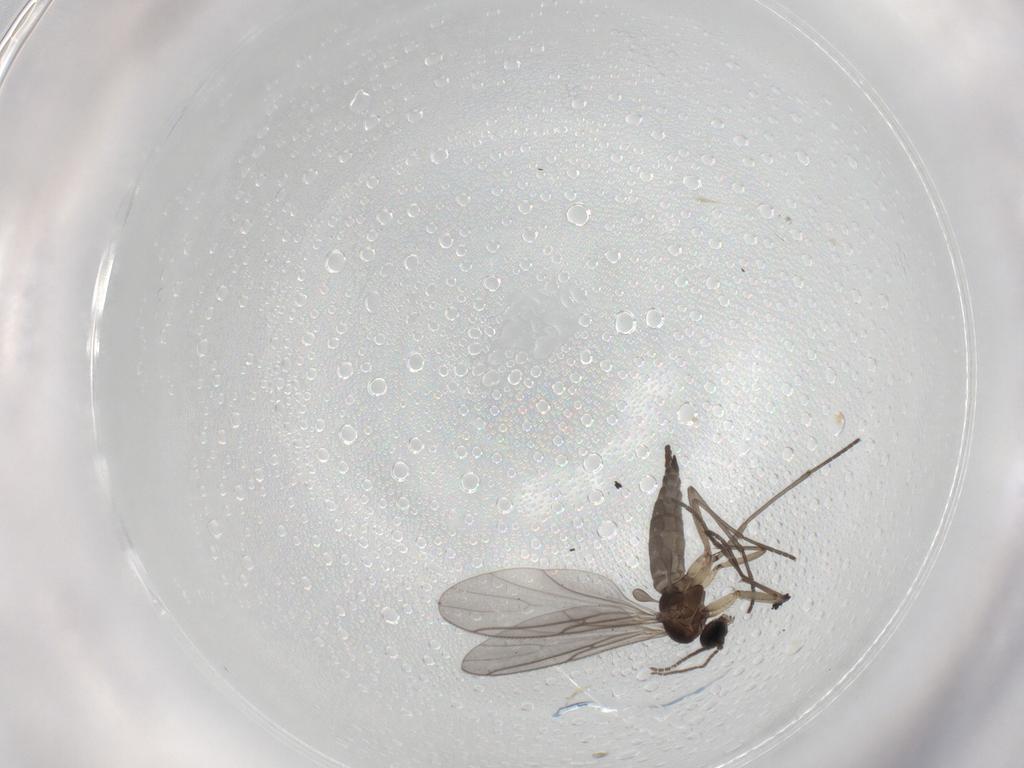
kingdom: Animalia
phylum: Arthropoda
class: Insecta
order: Diptera
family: Sciaridae
